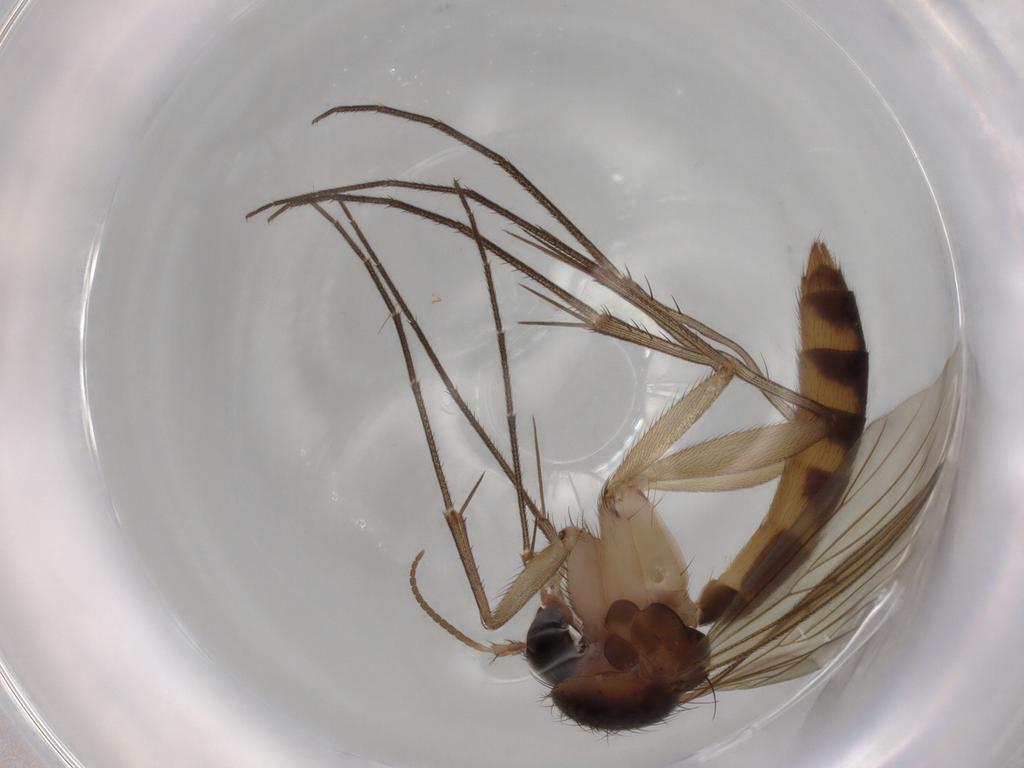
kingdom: Animalia
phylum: Arthropoda
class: Insecta
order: Diptera
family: Mycetophilidae
